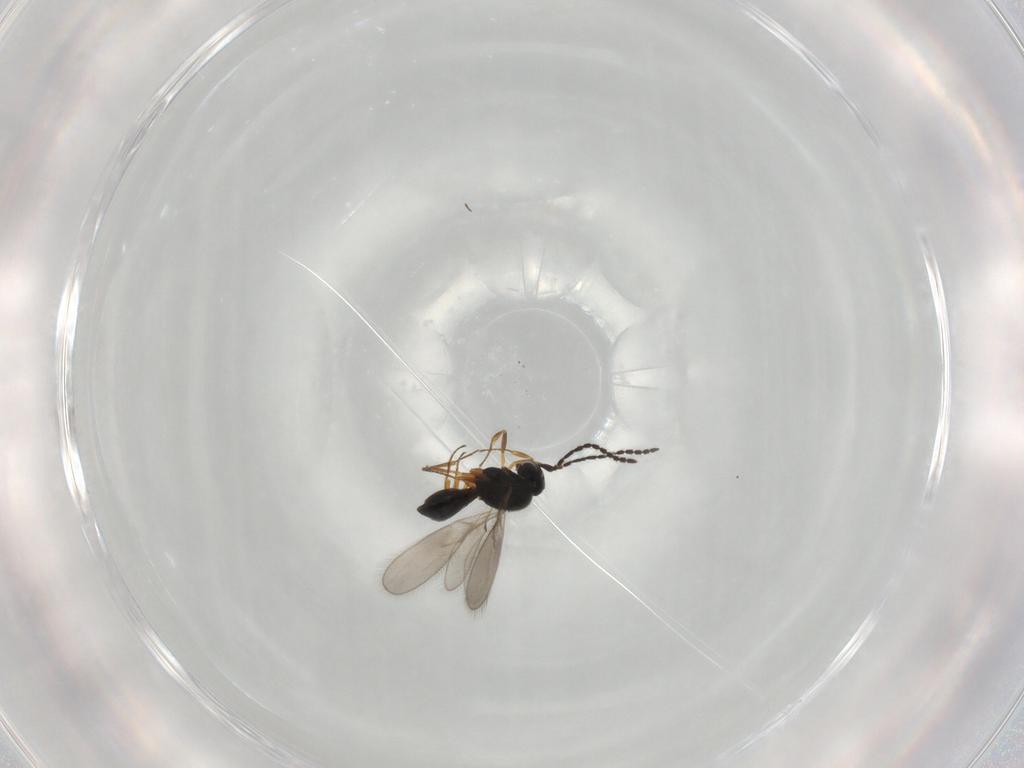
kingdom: Animalia
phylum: Arthropoda
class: Insecta
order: Hymenoptera
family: Scelionidae
